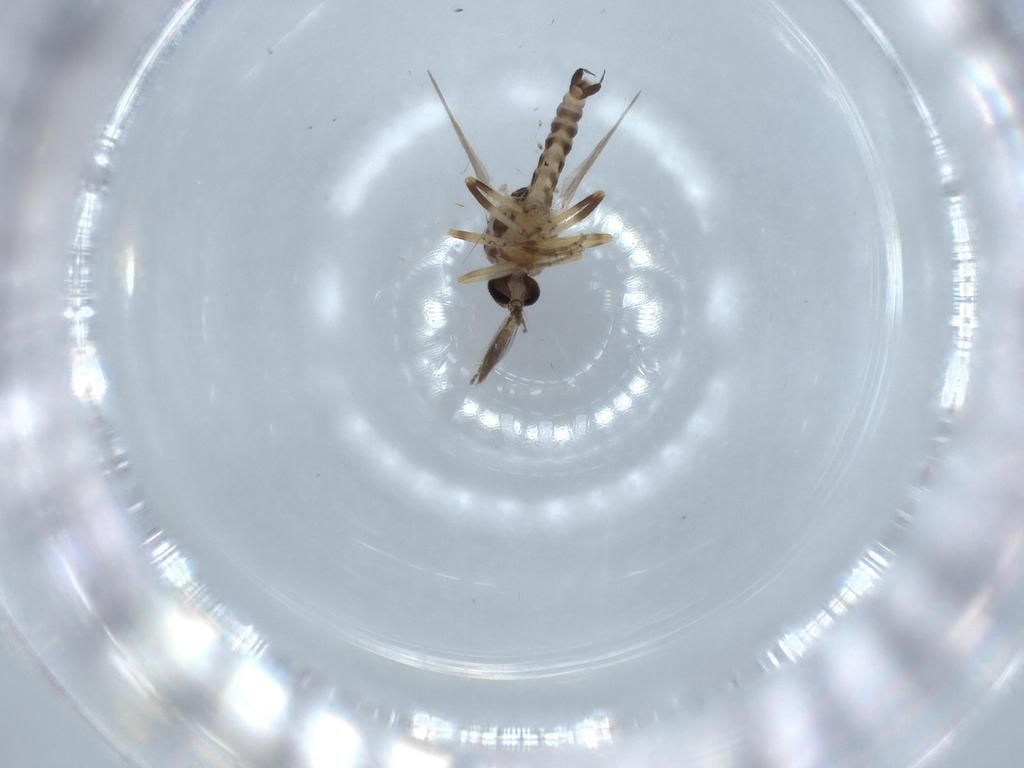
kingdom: Animalia
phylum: Arthropoda
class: Insecta
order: Diptera
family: Ceratopogonidae
